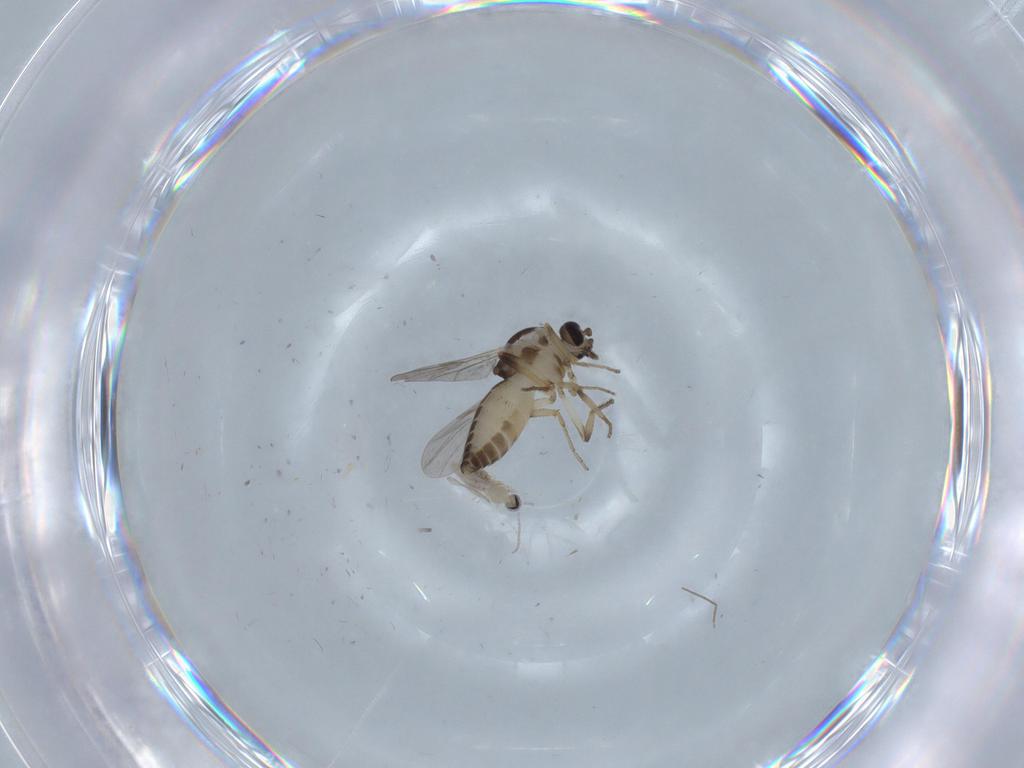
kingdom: Animalia
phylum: Arthropoda
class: Insecta
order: Diptera
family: Ceratopogonidae
